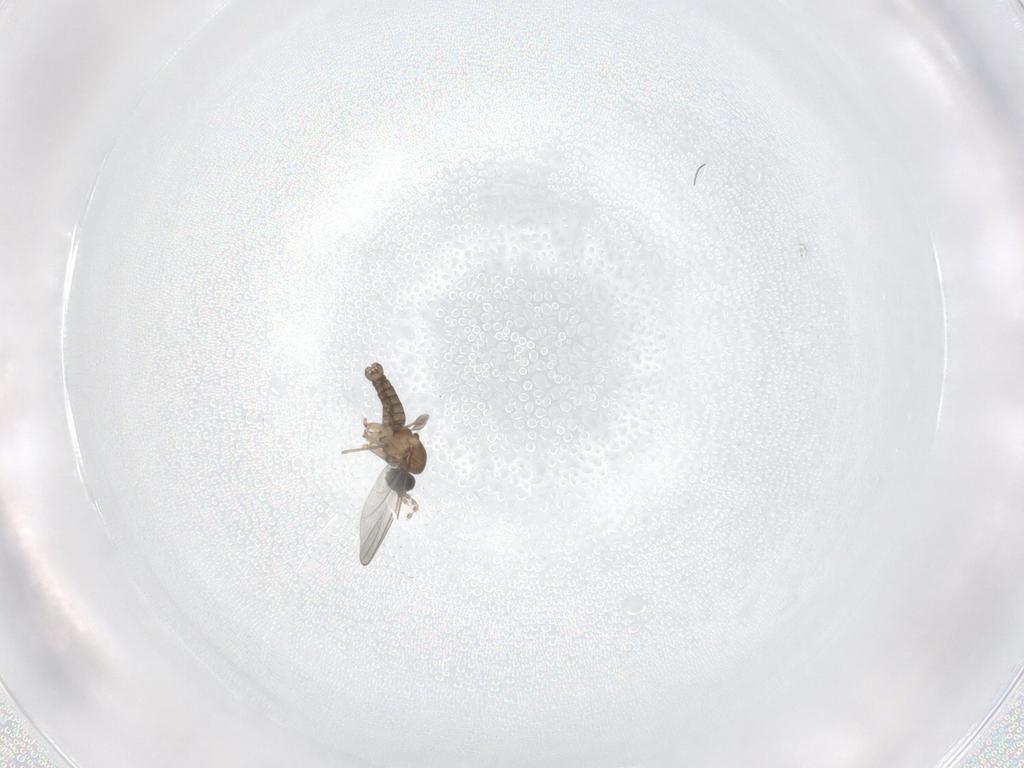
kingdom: Animalia
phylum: Arthropoda
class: Insecta
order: Diptera
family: Sciaridae
